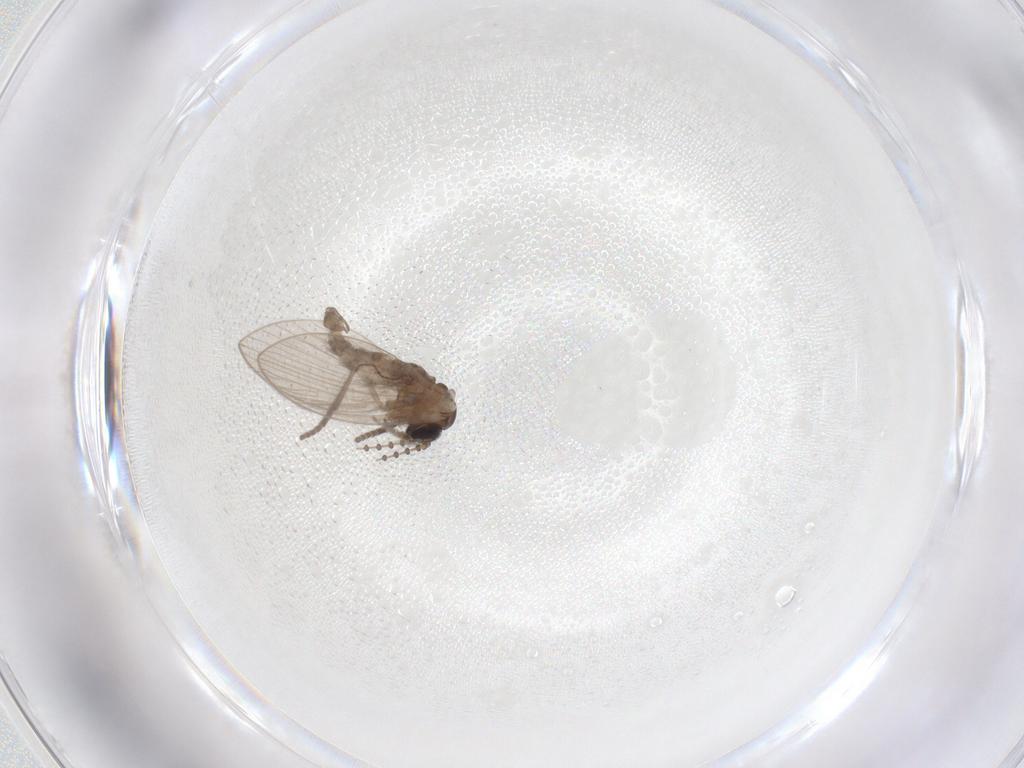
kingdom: Animalia
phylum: Arthropoda
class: Insecta
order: Diptera
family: Psychodidae
